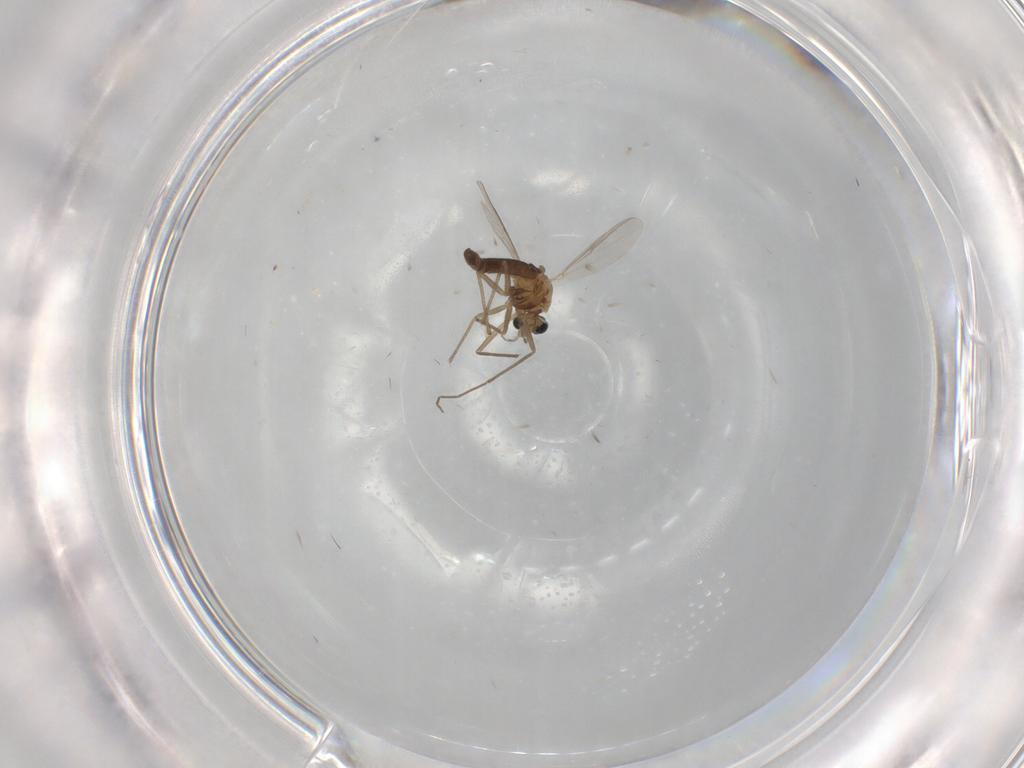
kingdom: Animalia
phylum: Arthropoda
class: Insecta
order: Diptera
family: Chironomidae
